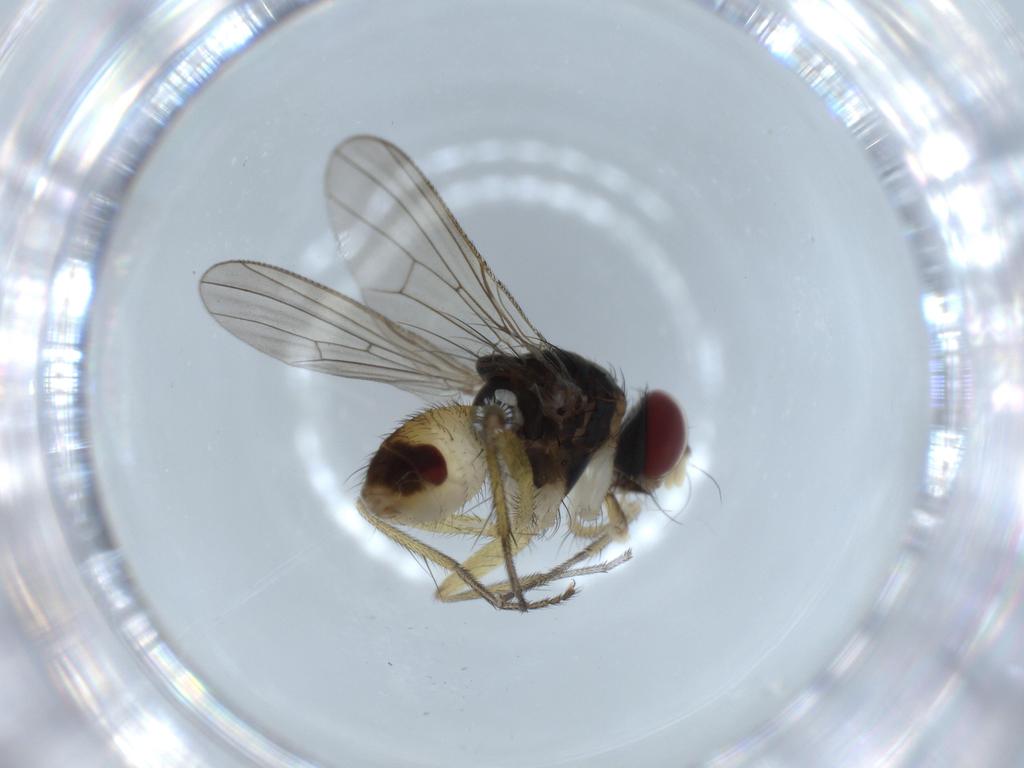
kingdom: Animalia
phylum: Arthropoda
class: Insecta
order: Diptera
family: Muscidae
